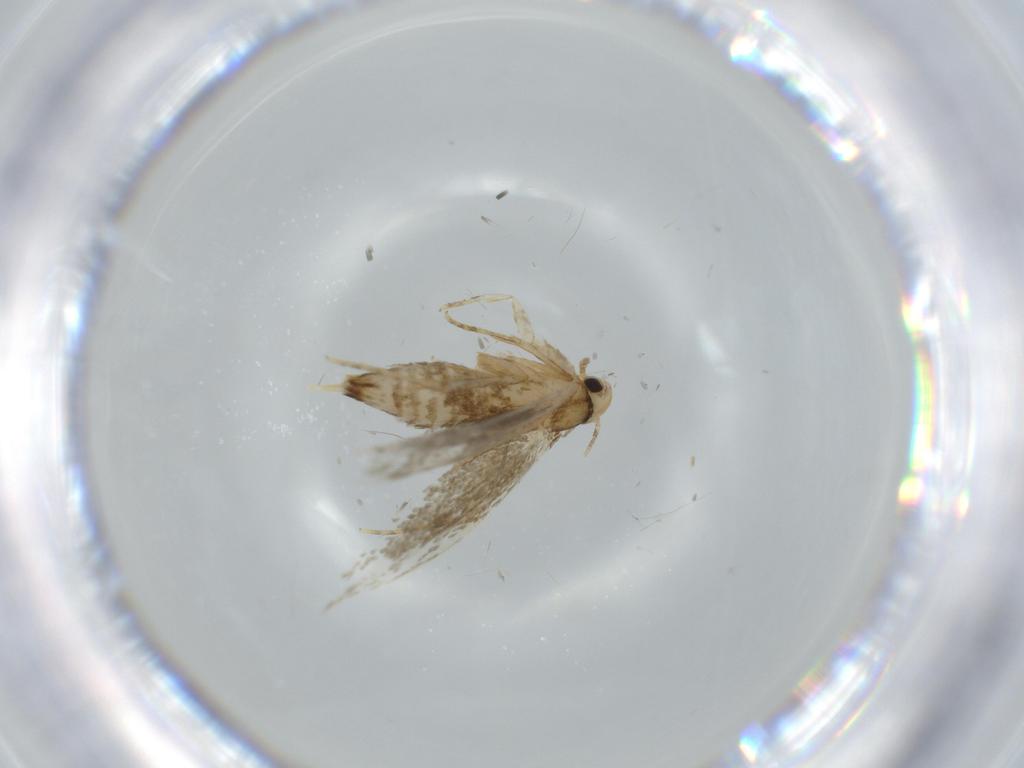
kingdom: Animalia
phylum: Arthropoda
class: Insecta
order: Lepidoptera
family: Tineidae
